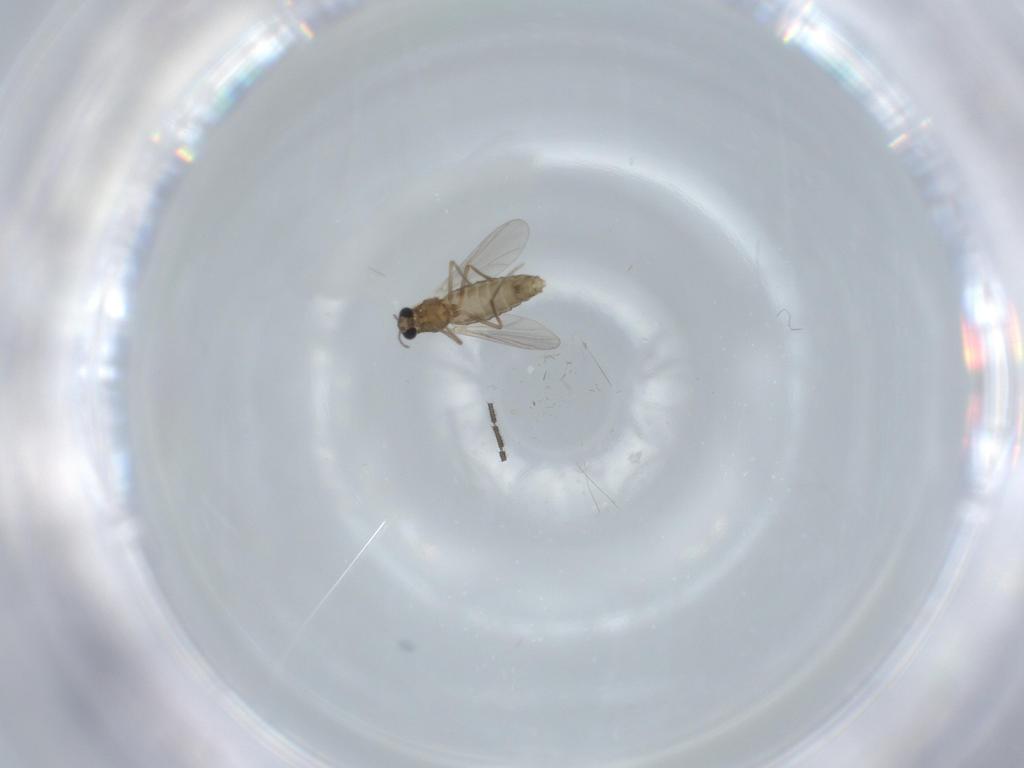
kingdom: Animalia
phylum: Arthropoda
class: Insecta
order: Diptera
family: Chironomidae
